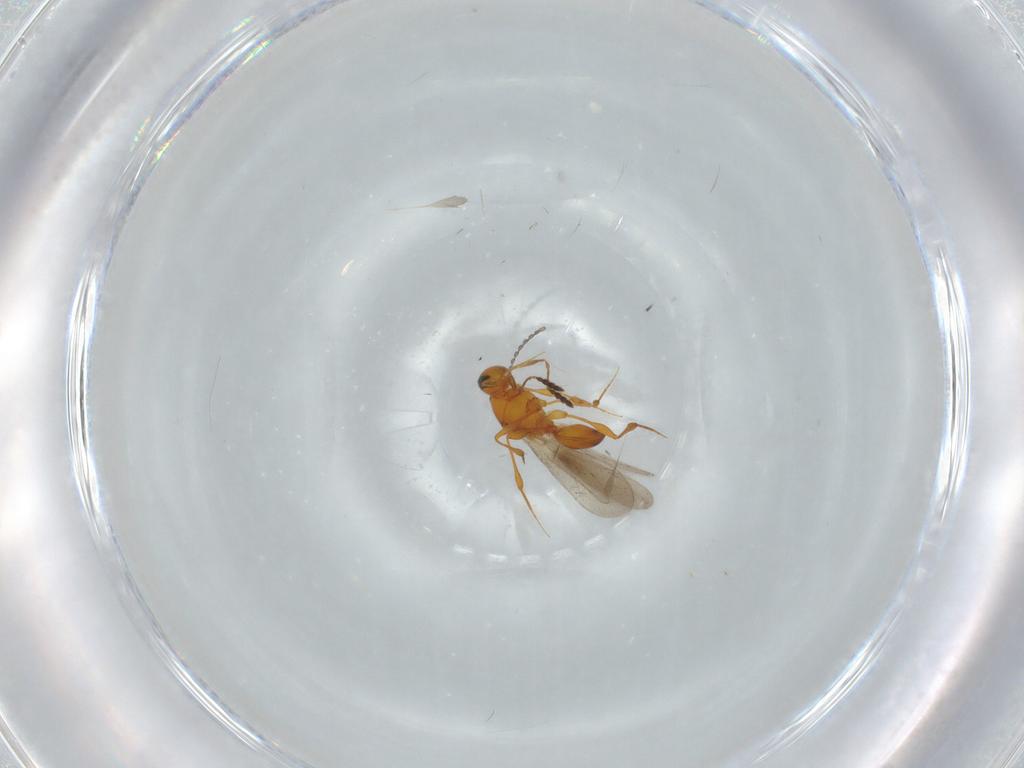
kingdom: Animalia
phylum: Arthropoda
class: Insecta
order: Hymenoptera
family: Platygastridae
